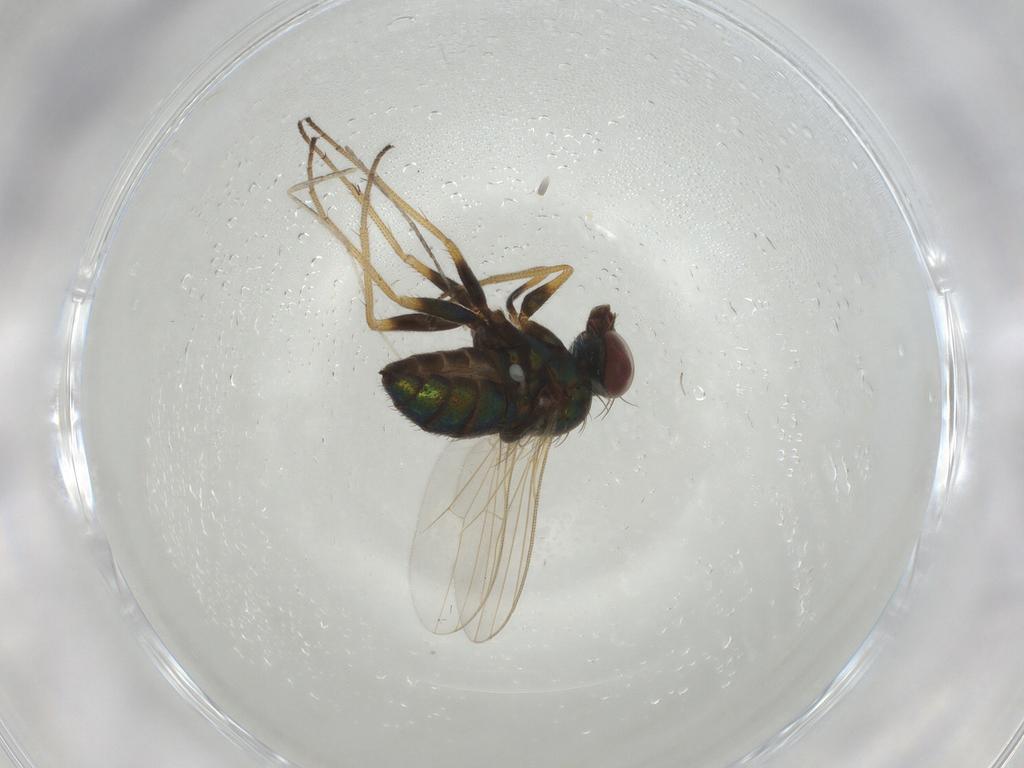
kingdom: Animalia
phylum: Arthropoda
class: Insecta
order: Diptera
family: Dolichopodidae
